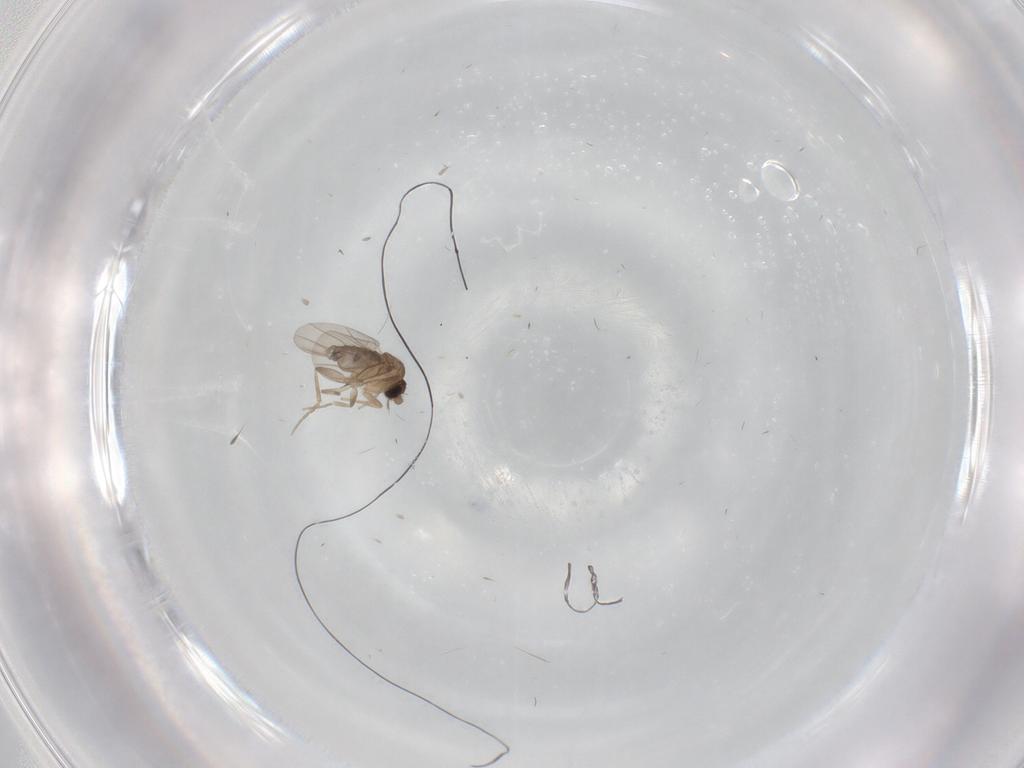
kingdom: Animalia
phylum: Arthropoda
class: Insecta
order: Diptera
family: Phoridae
